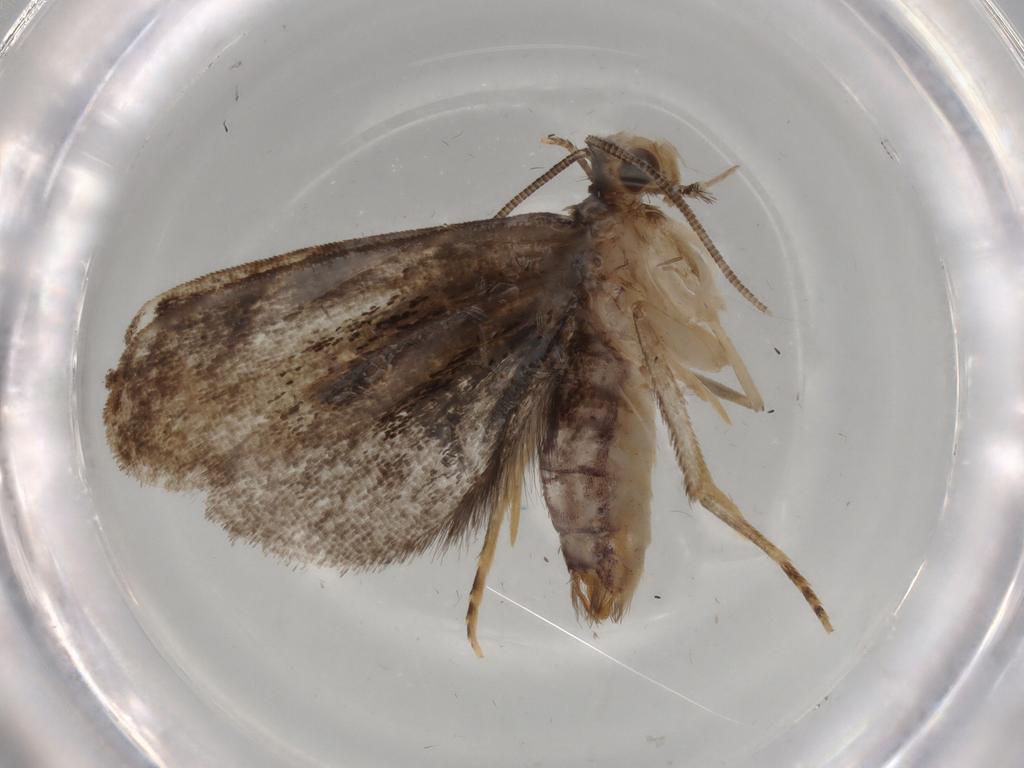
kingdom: Animalia
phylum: Arthropoda
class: Insecta
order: Lepidoptera
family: Dryadaulidae
